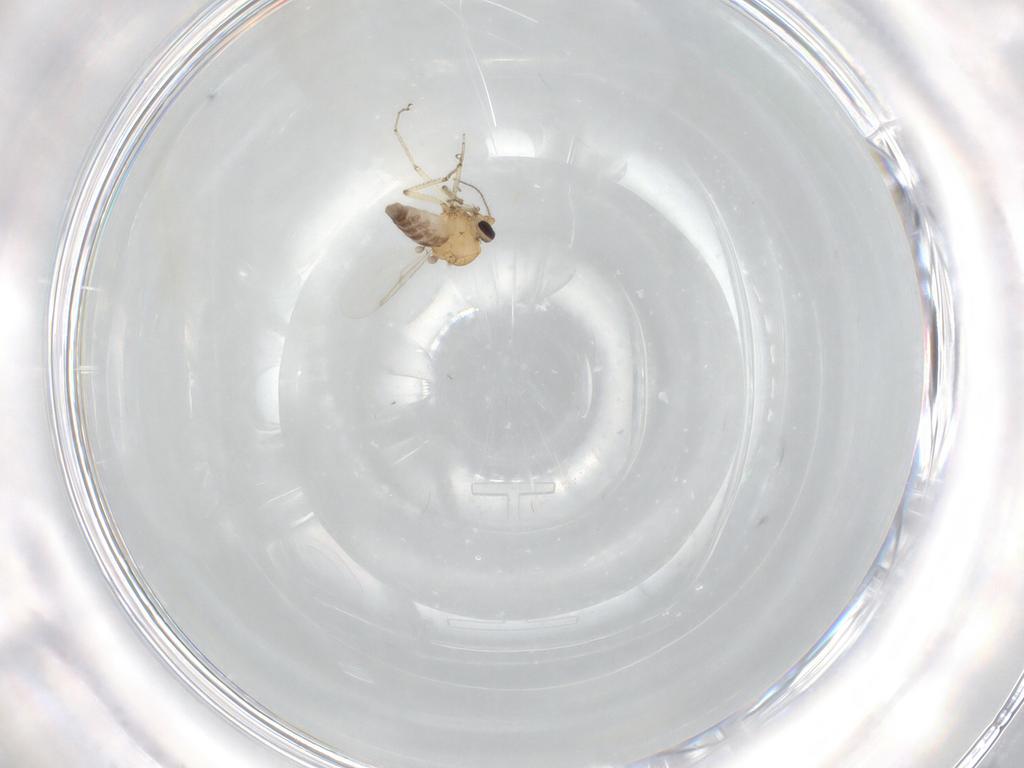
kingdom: Animalia
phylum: Arthropoda
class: Insecta
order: Diptera
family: Ceratopogonidae
